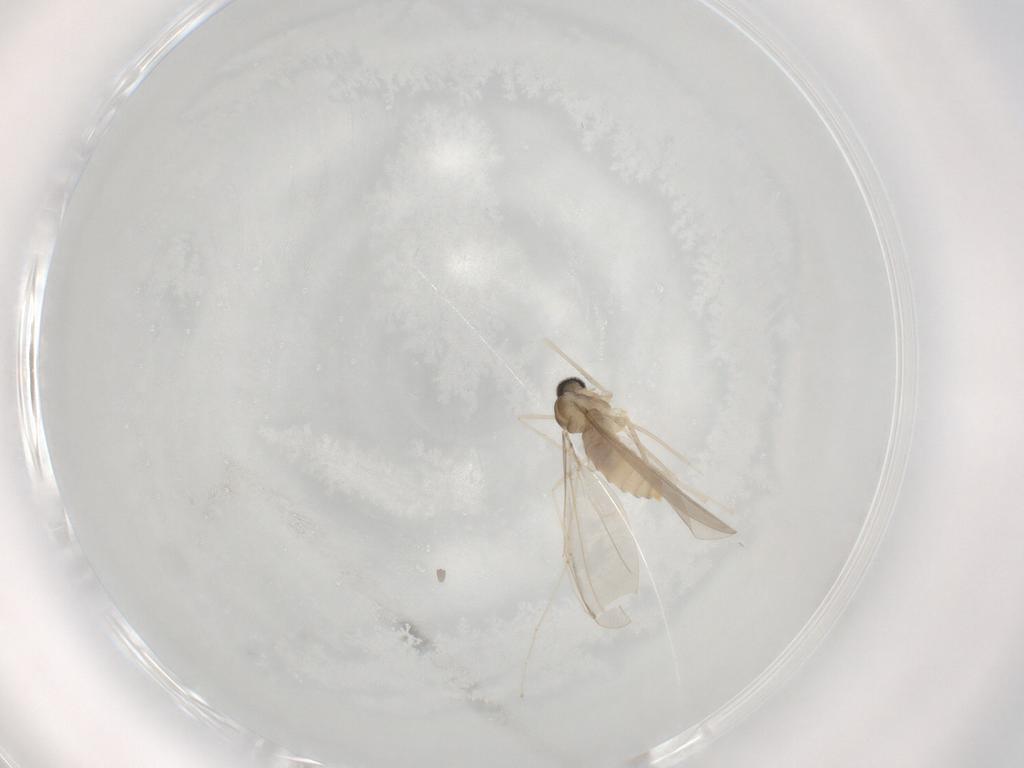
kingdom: Animalia
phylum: Arthropoda
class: Insecta
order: Diptera
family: Cecidomyiidae
